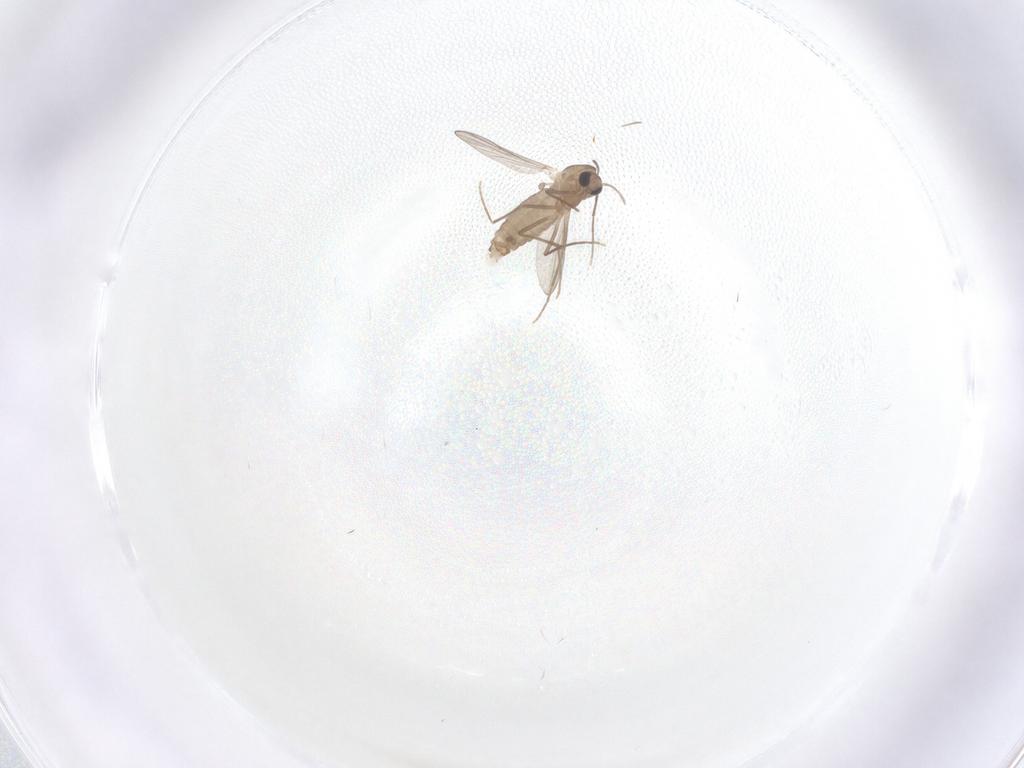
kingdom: Animalia
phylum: Arthropoda
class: Insecta
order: Diptera
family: Chironomidae
